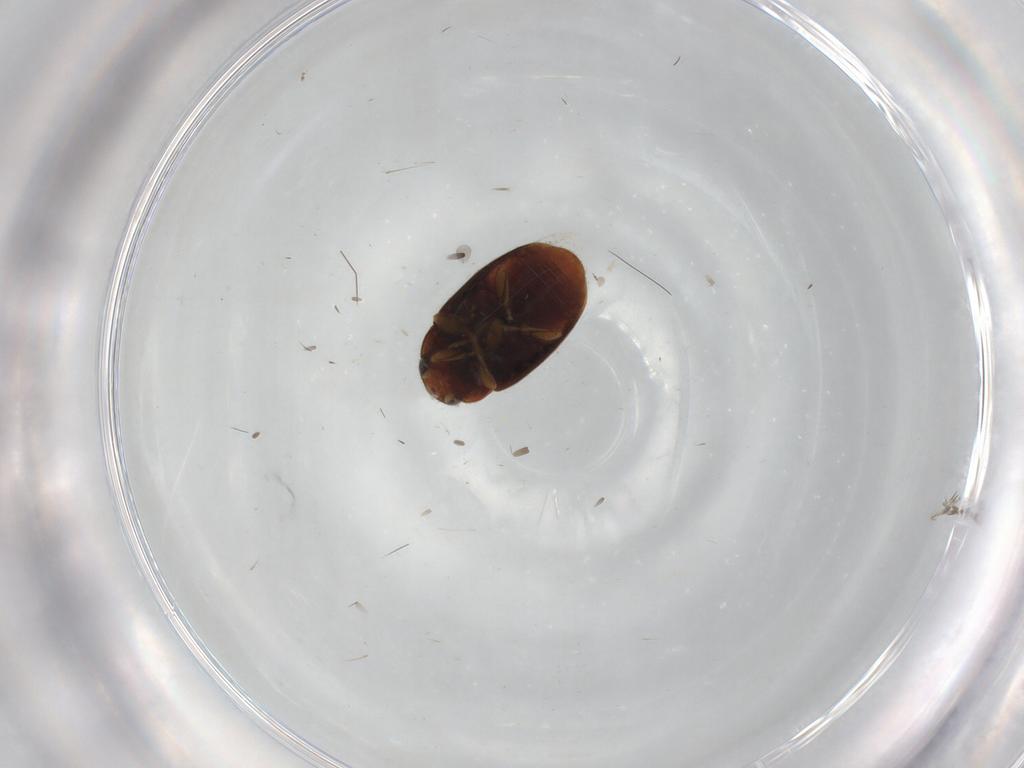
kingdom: Animalia
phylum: Arthropoda
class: Insecta
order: Coleoptera
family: Coccinellidae
